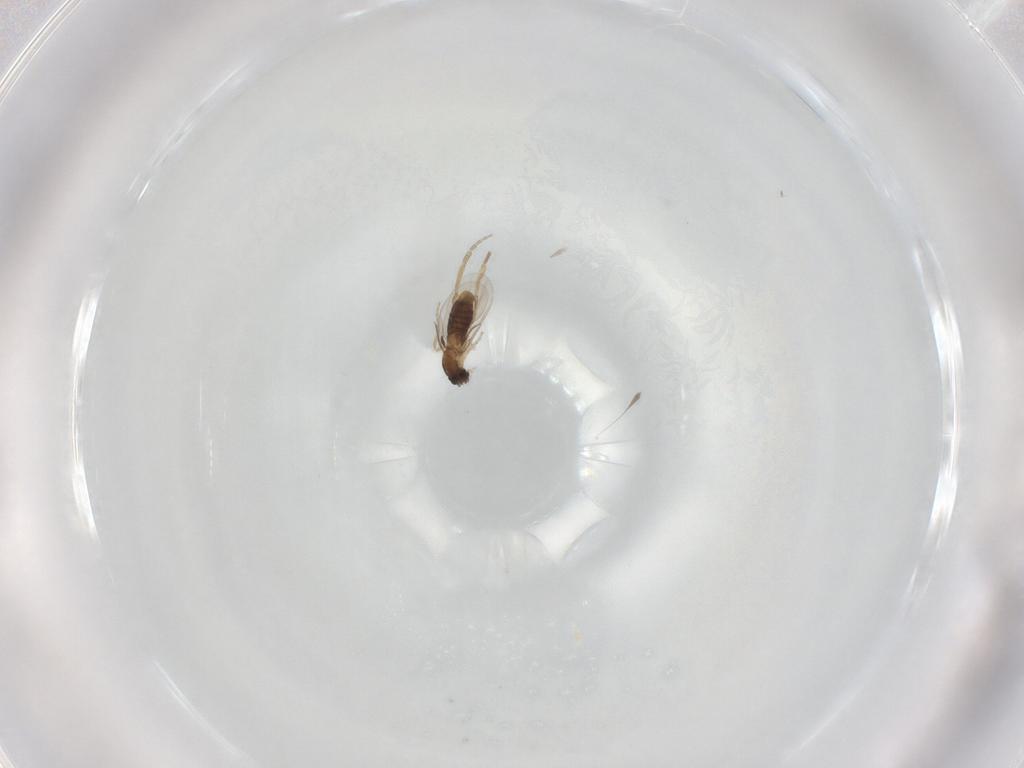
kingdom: Animalia
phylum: Arthropoda
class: Insecta
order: Diptera
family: Phoridae
